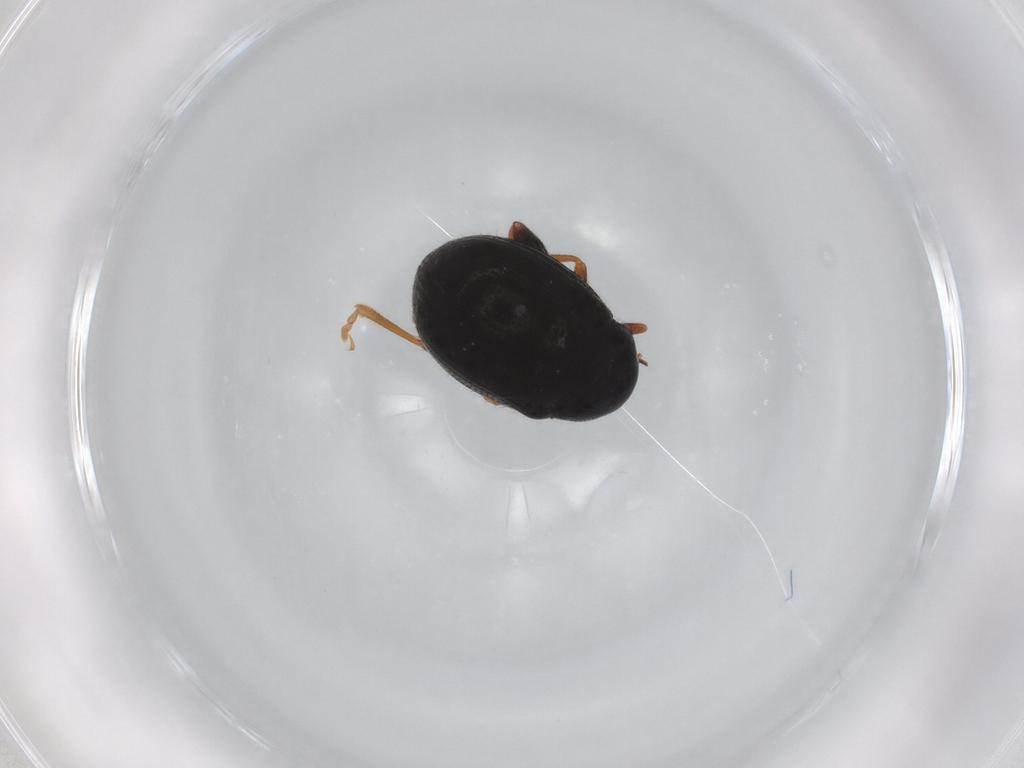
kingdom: Animalia
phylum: Arthropoda
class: Insecta
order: Coleoptera
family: Chrysomelidae
